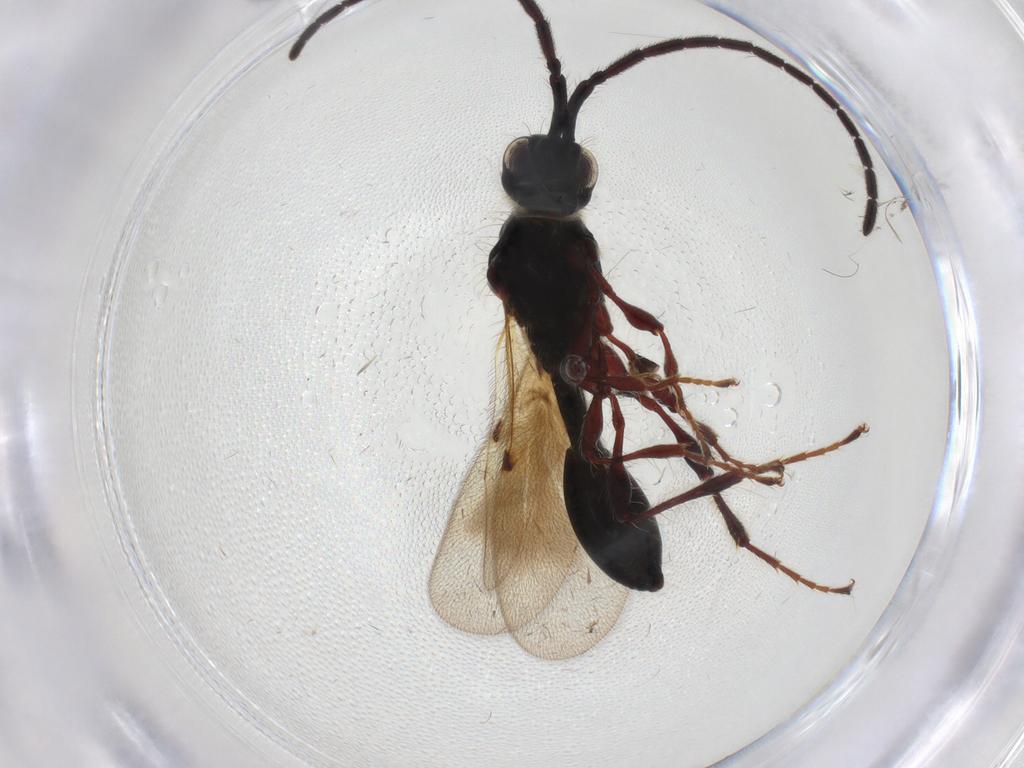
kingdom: Animalia
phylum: Arthropoda
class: Insecta
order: Hymenoptera
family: Diapriidae
